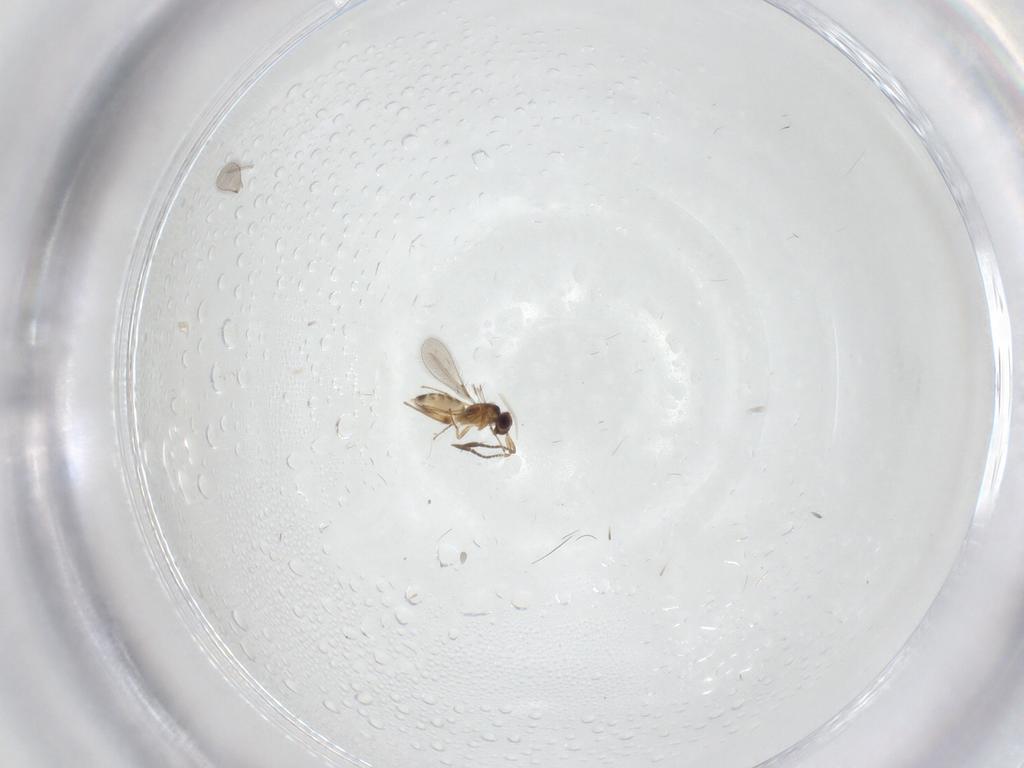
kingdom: Animalia
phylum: Arthropoda
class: Insecta
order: Hymenoptera
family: Mymaridae
